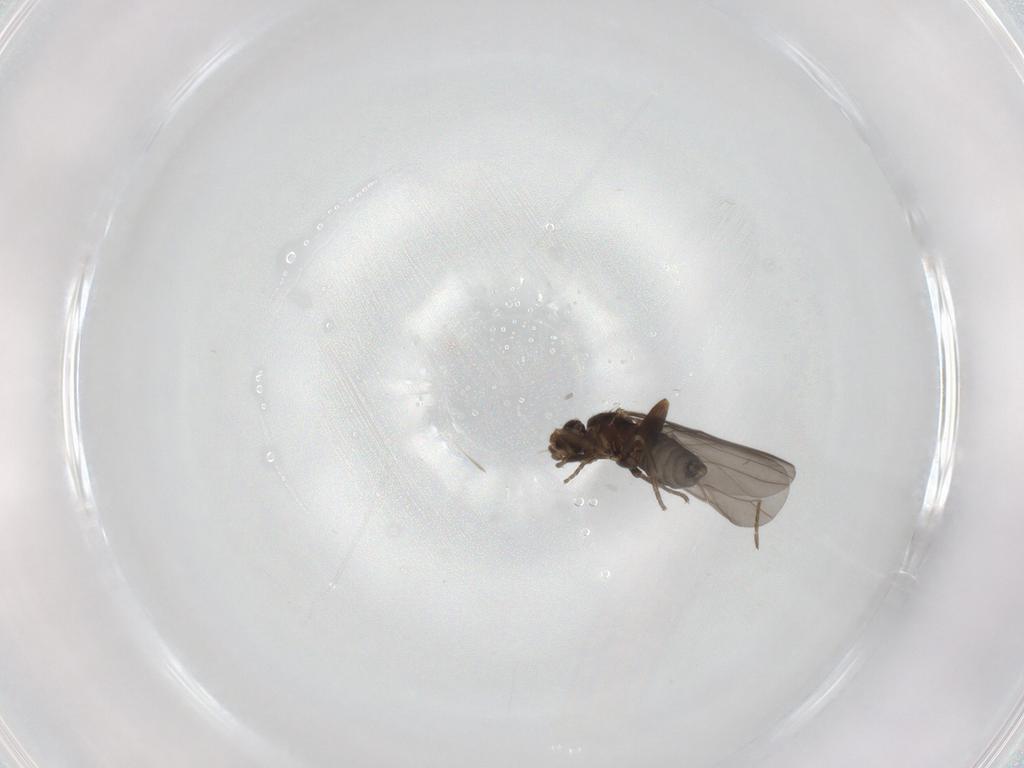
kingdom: Animalia
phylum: Arthropoda
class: Insecta
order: Diptera
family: Phoridae
